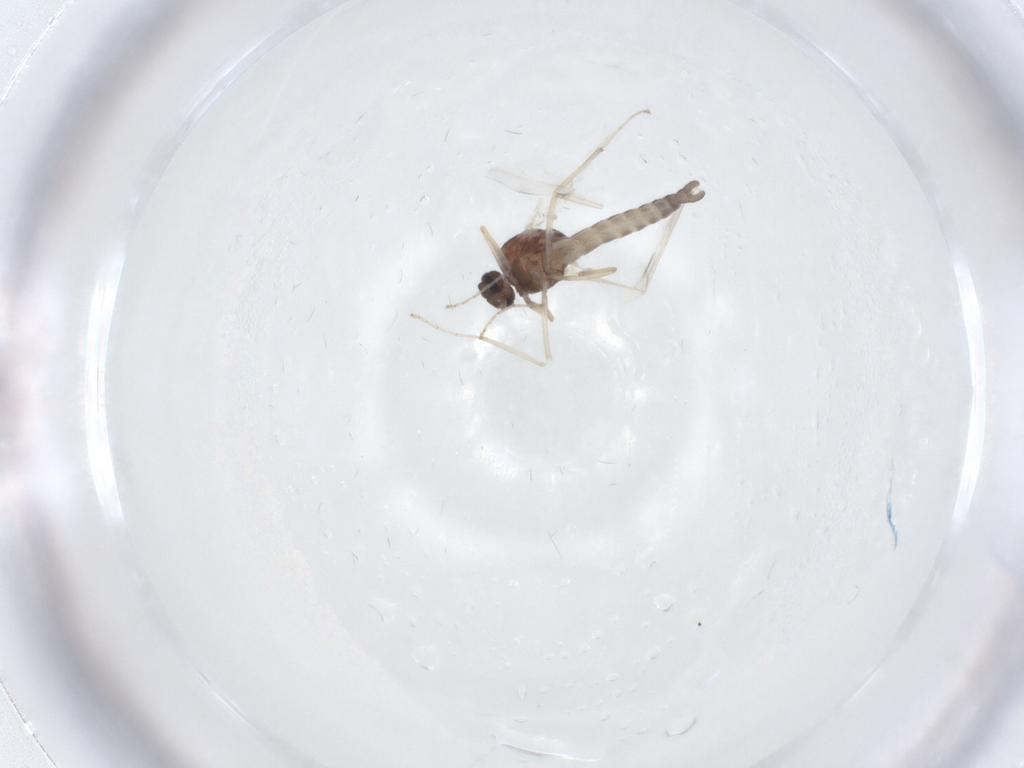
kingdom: Animalia
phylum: Arthropoda
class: Insecta
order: Diptera
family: Ceratopogonidae
